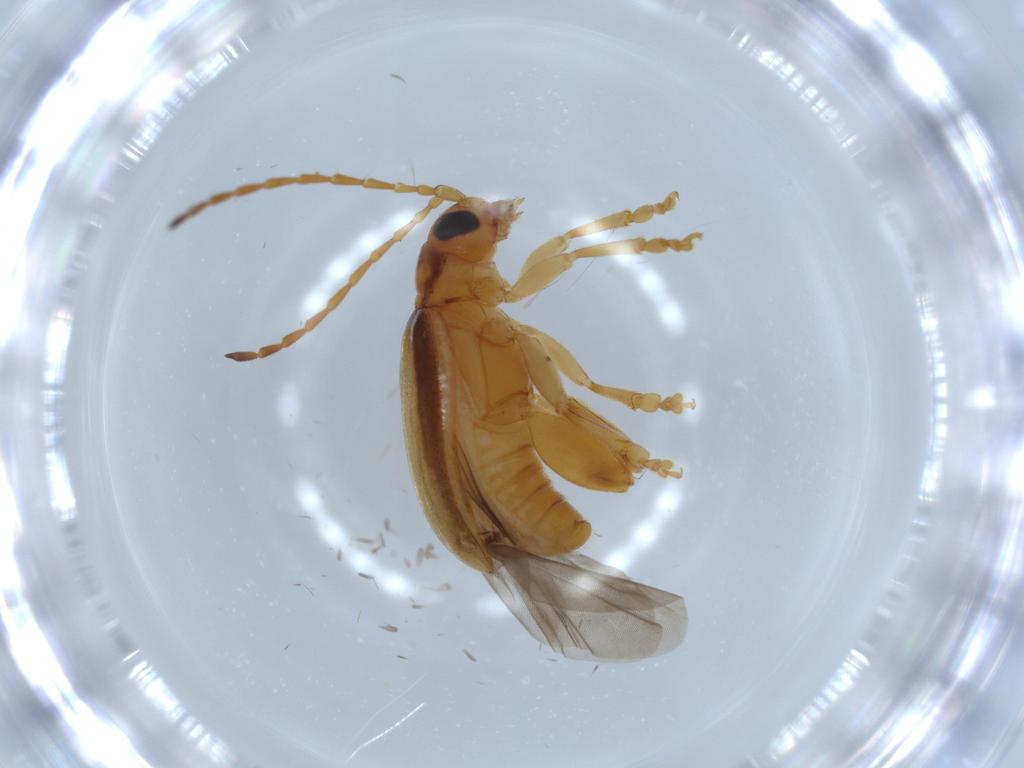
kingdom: Animalia
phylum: Arthropoda
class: Insecta
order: Coleoptera
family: Chrysomelidae
